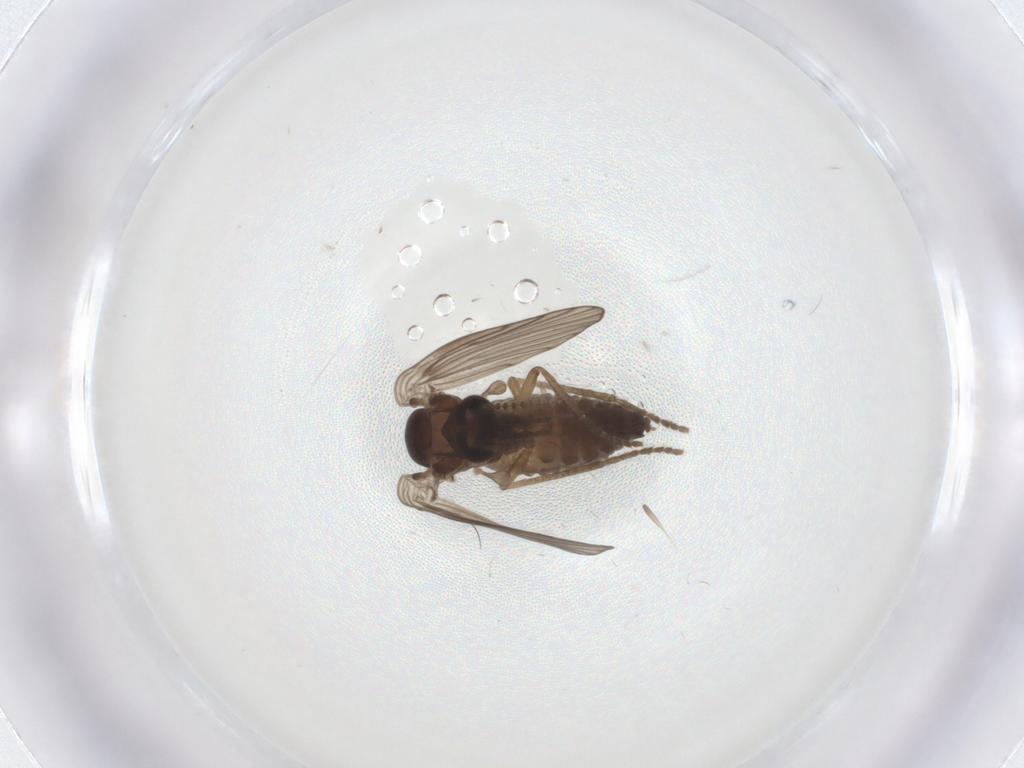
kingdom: Animalia
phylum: Arthropoda
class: Insecta
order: Diptera
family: Psychodidae
